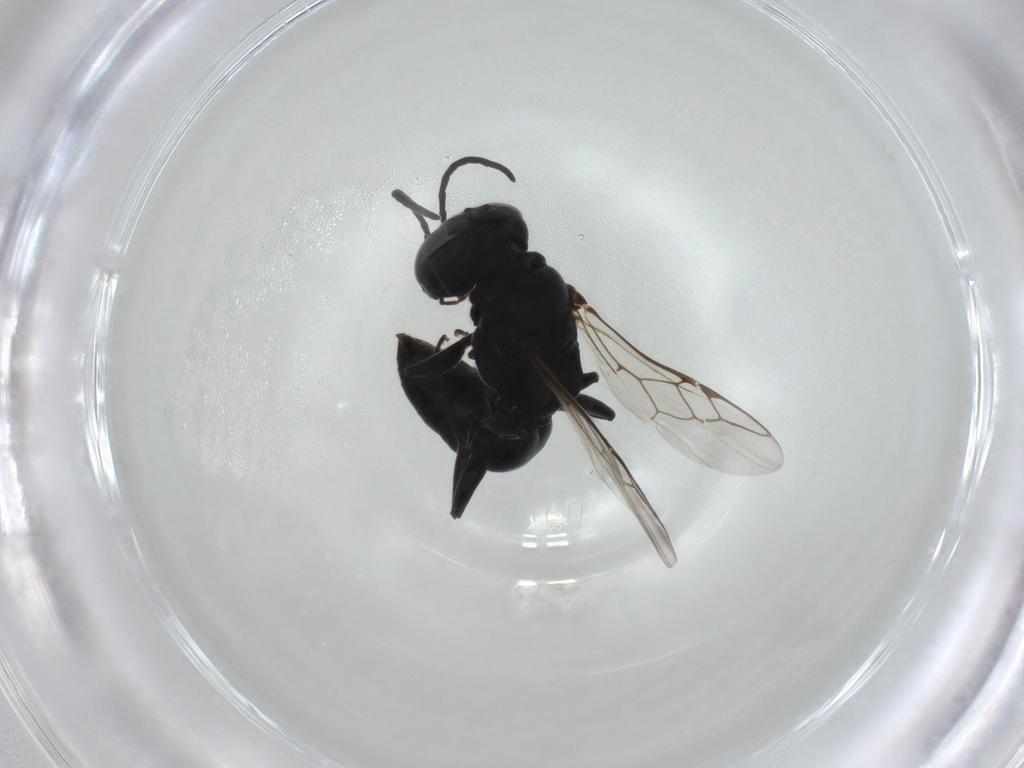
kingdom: Animalia
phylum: Arthropoda
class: Insecta
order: Hymenoptera
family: Crabronidae
